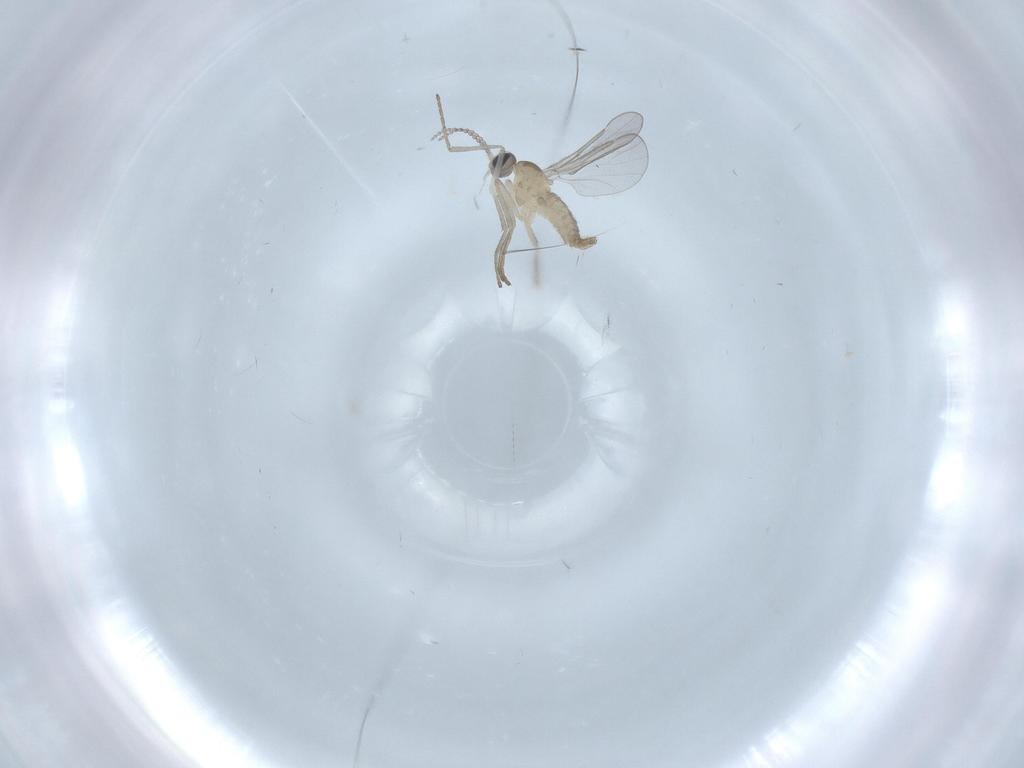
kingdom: Animalia
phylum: Arthropoda
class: Insecta
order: Diptera
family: Cecidomyiidae
